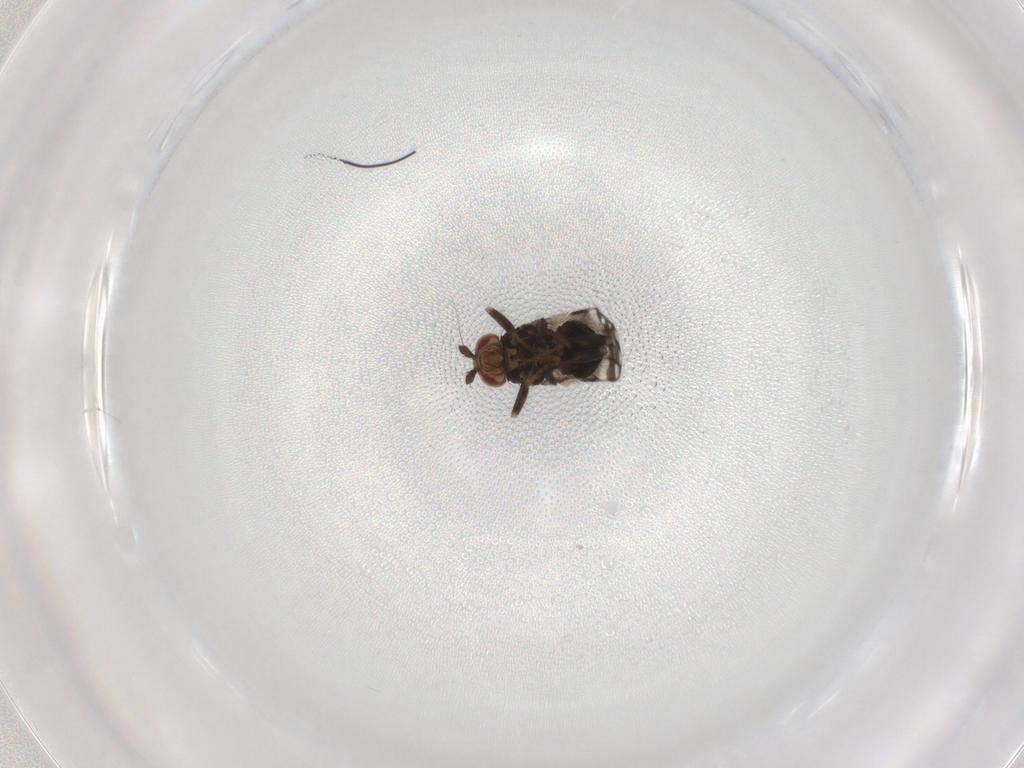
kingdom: Animalia
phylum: Arthropoda
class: Insecta
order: Diptera
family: Sphaeroceridae
